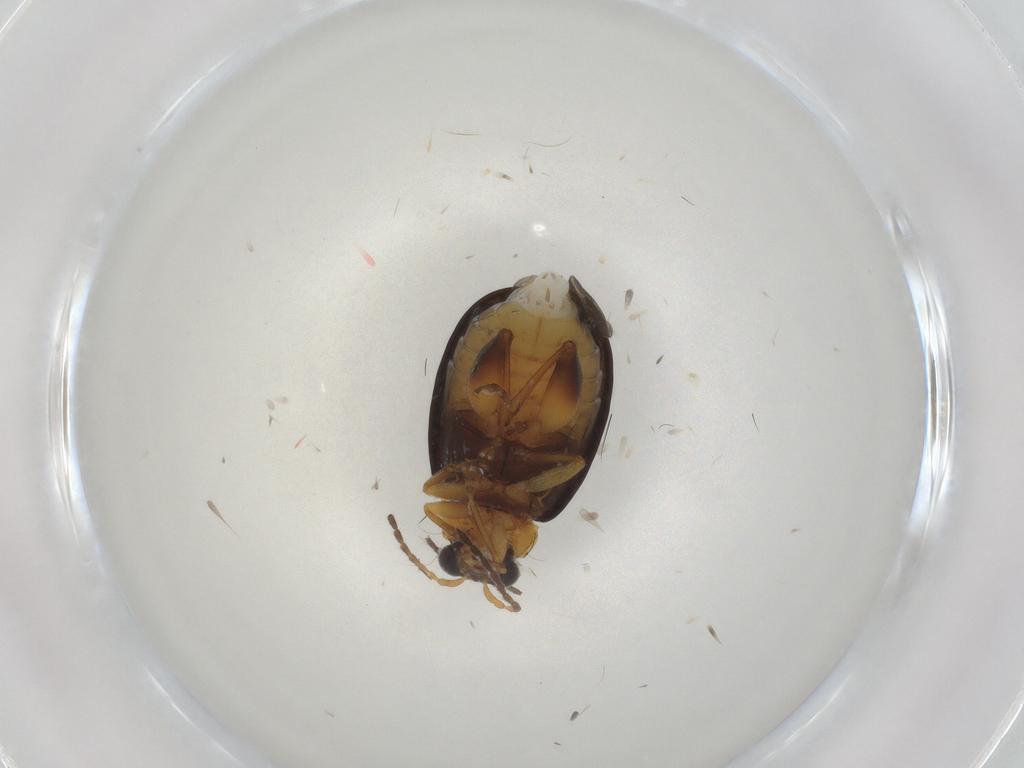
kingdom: Animalia
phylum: Arthropoda
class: Insecta
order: Coleoptera
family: Chrysomelidae
